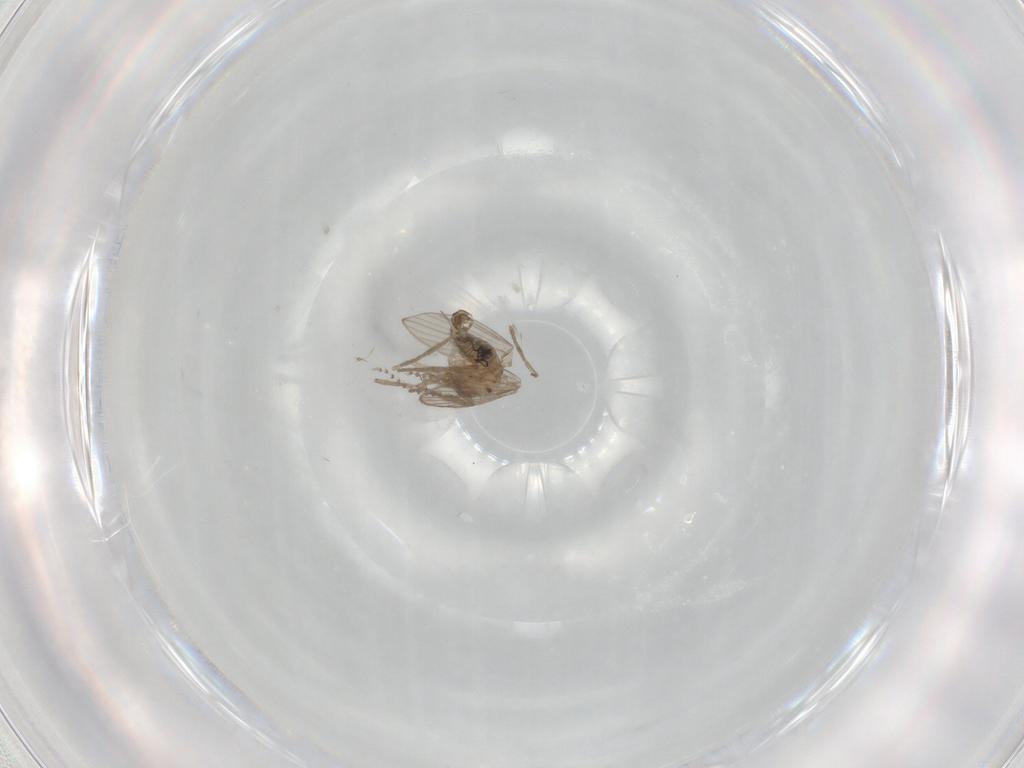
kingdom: Animalia
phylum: Arthropoda
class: Insecta
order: Diptera
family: Psychodidae
